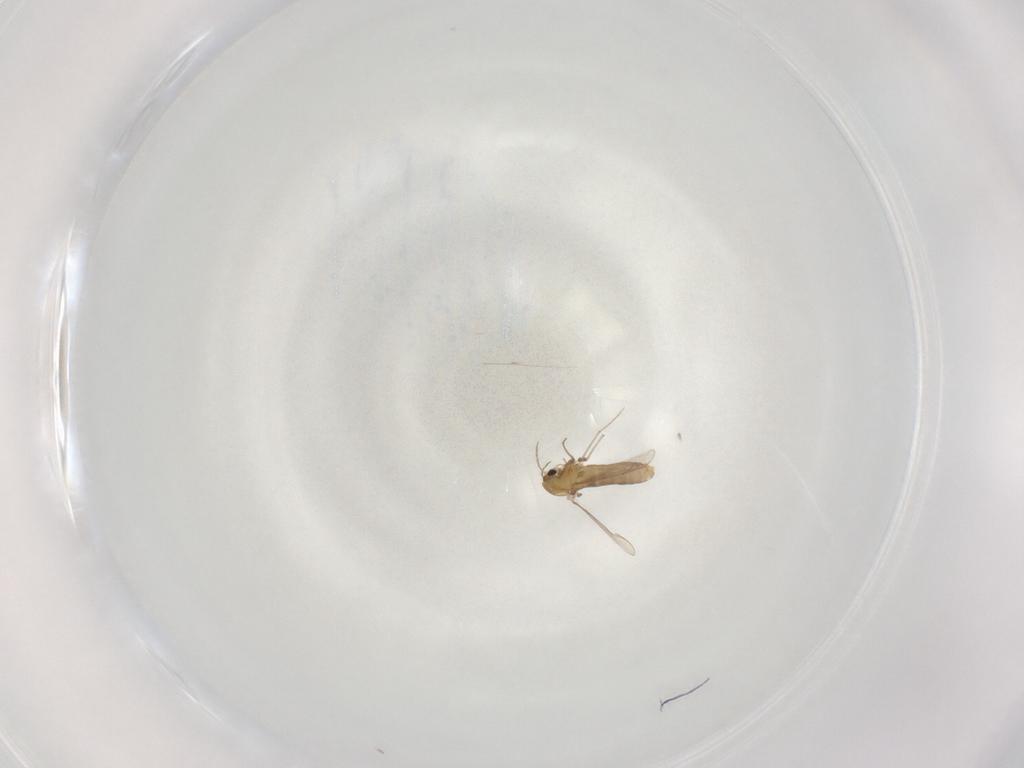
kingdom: Animalia
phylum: Arthropoda
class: Insecta
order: Diptera
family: Chironomidae
